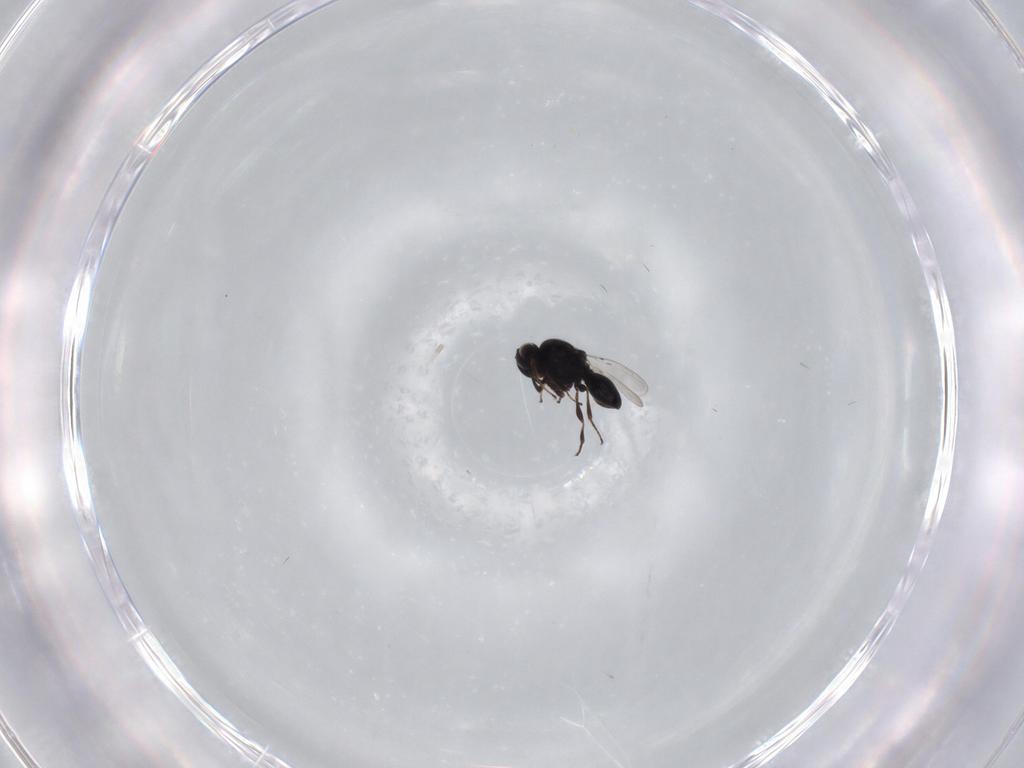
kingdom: Animalia
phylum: Arthropoda
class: Insecta
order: Hymenoptera
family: Platygastridae
